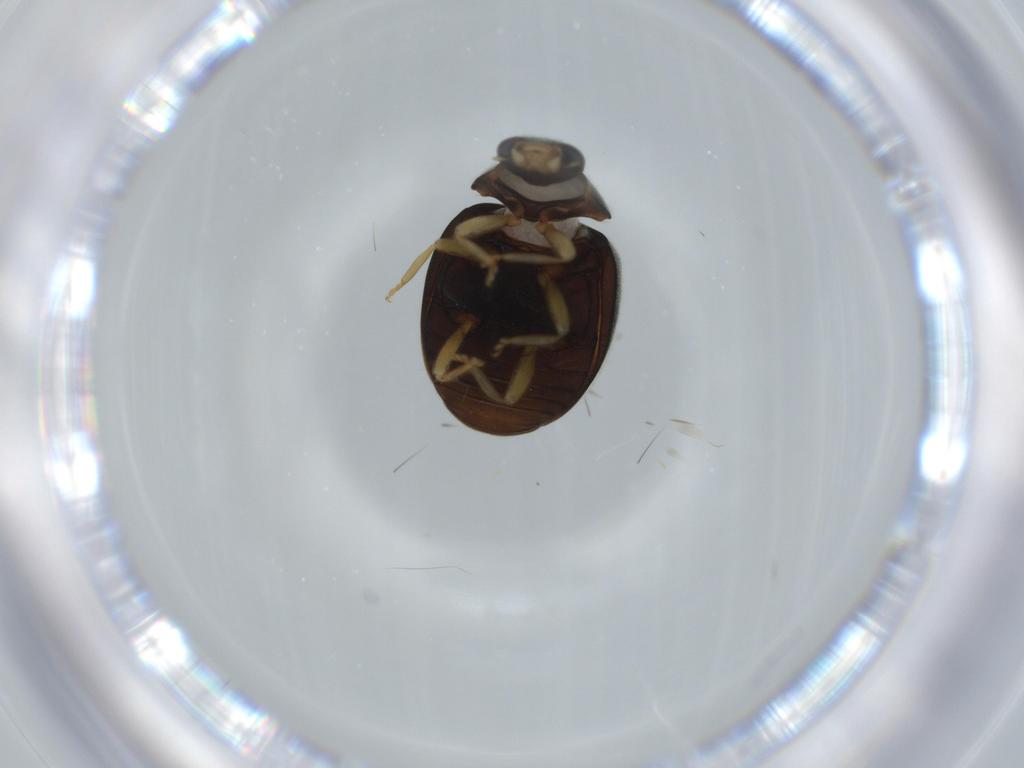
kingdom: Animalia
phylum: Arthropoda
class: Insecta
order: Coleoptera
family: Coccinellidae
